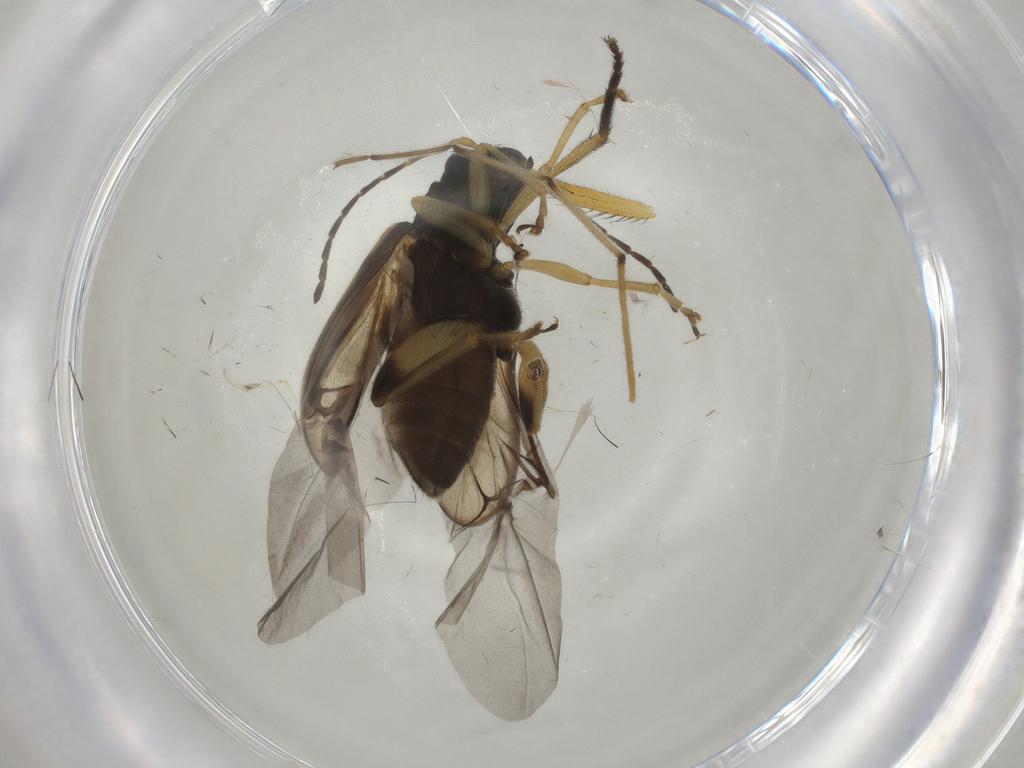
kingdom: Animalia
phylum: Arthropoda
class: Insecta
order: Coleoptera
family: Chrysomelidae
